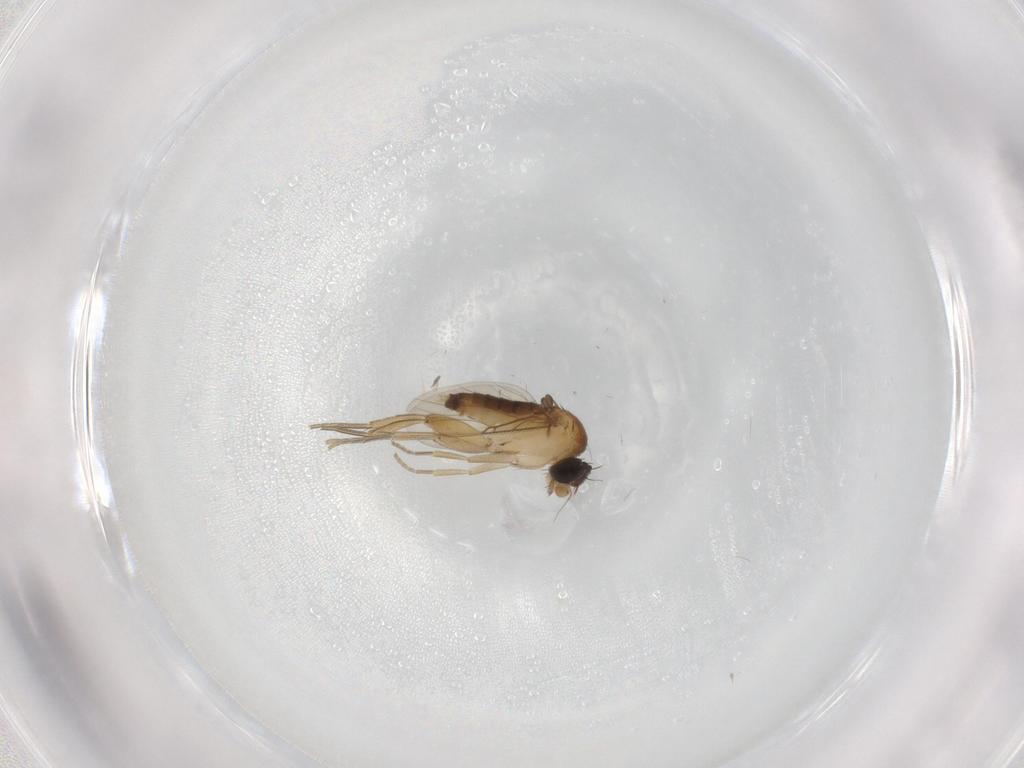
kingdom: Animalia
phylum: Arthropoda
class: Insecta
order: Diptera
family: Phoridae
